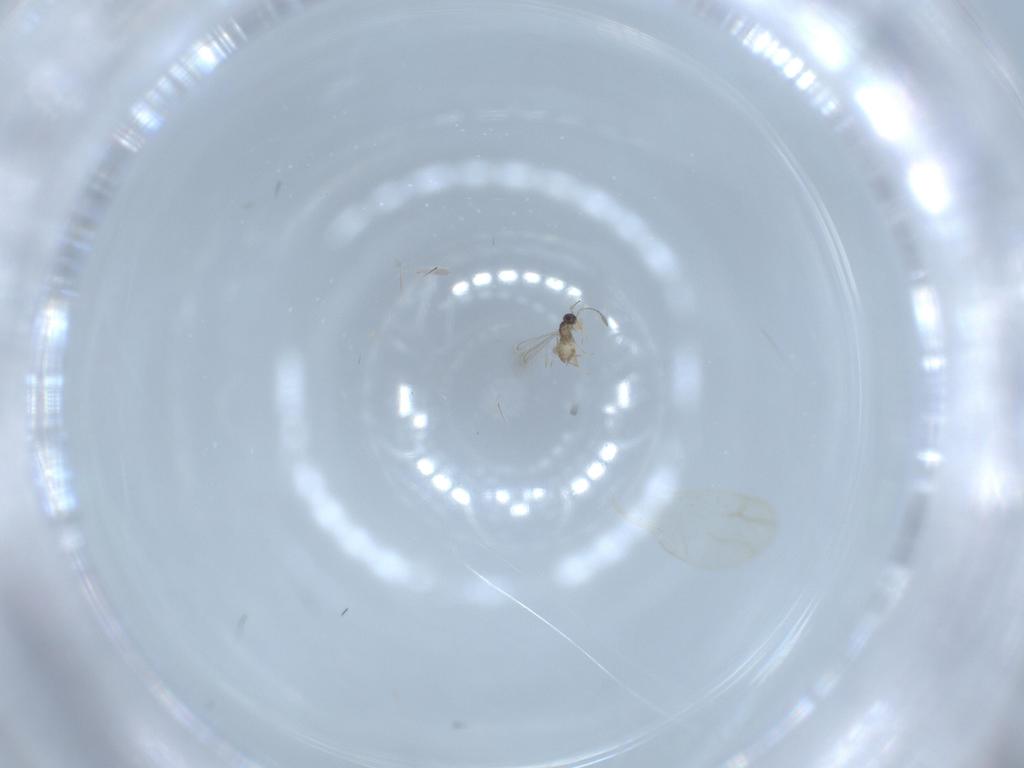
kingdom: Animalia
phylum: Arthropoda
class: Insecta
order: Hymenoptera
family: Mymaridae
